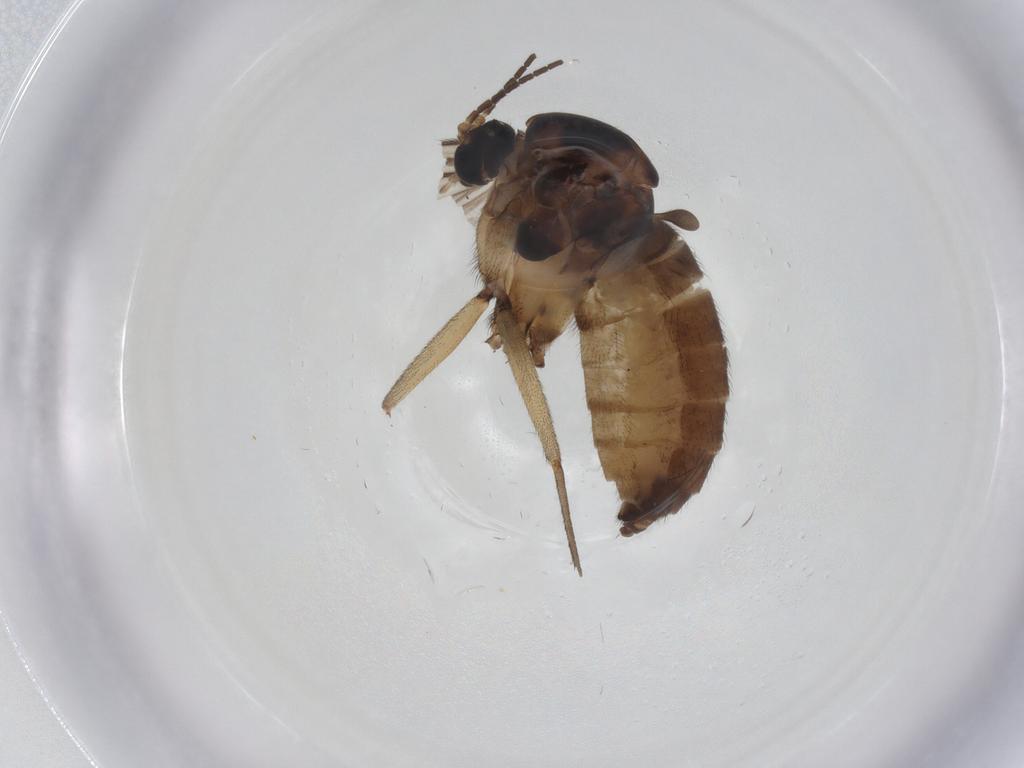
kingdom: Animalia
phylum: Arthropoda
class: Insecta
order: Diptera
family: Sciaridae
